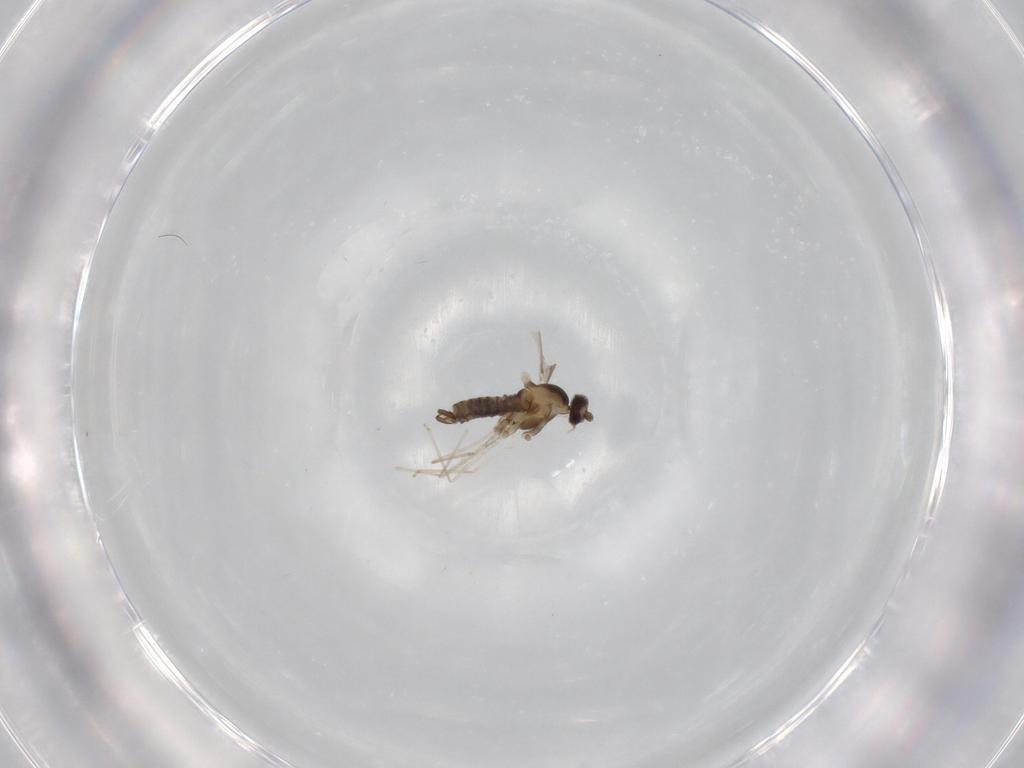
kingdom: Animalia
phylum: Arthropoda
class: Insecta
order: Diptera
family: Cecidomyiidae
